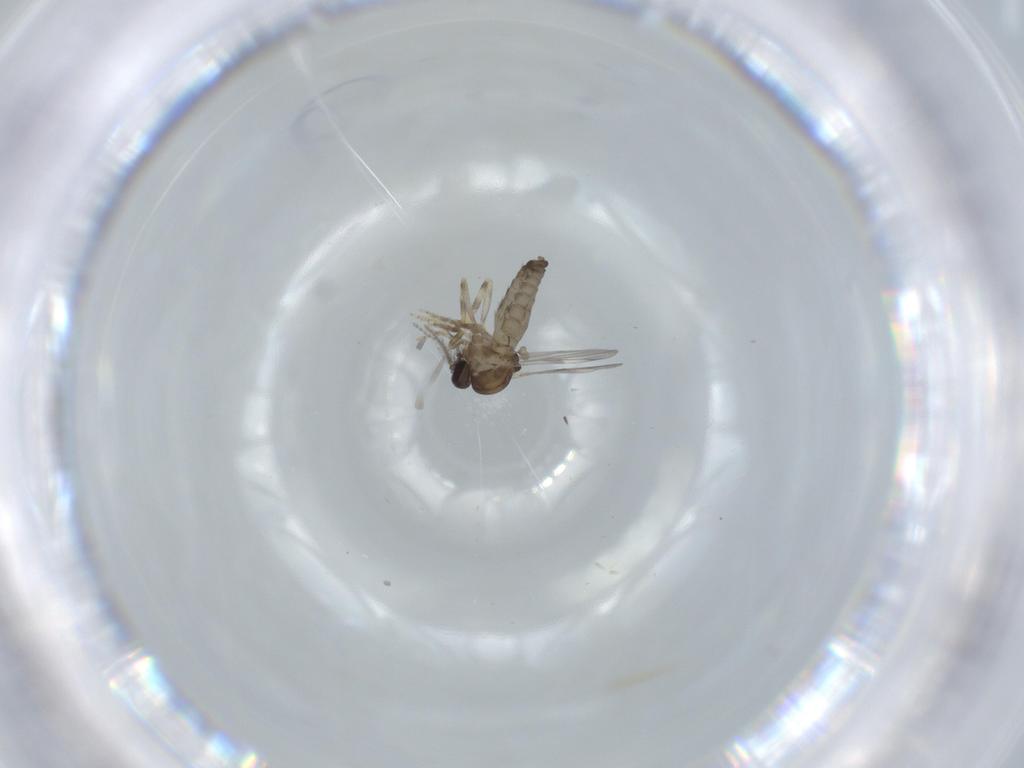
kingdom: Animalia
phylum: Arthropoda
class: Insecta
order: Diptera
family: Ceratopogonidae
